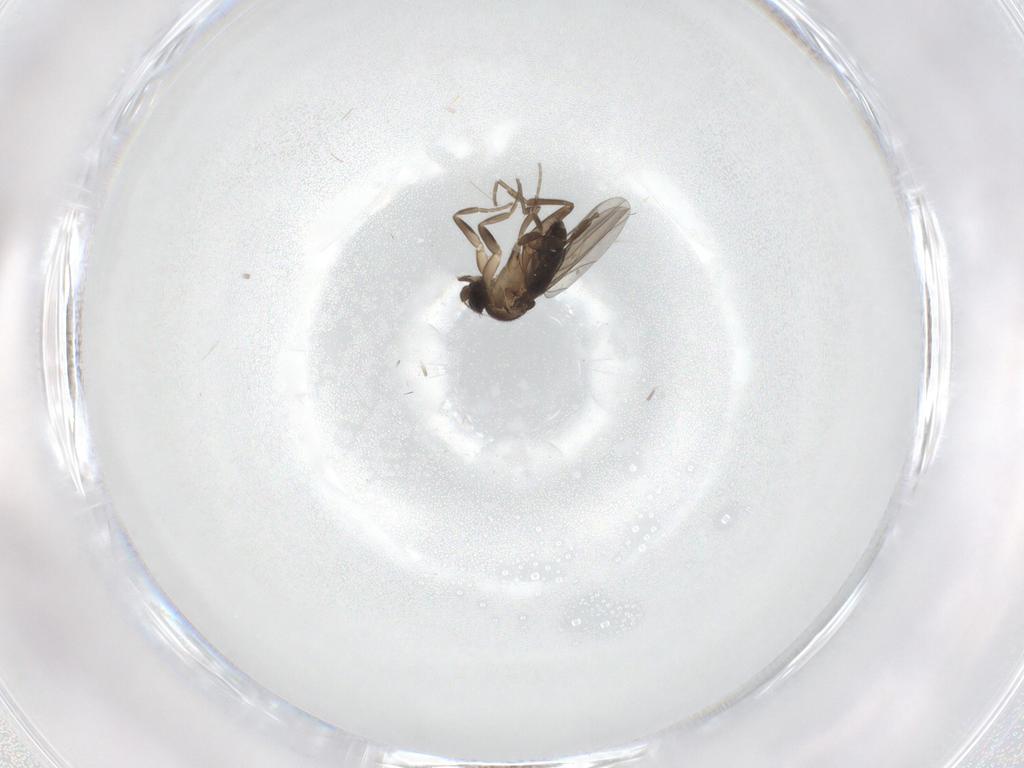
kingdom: Animalia
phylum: Arthropoda
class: Insecta
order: Diptera
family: Phoridae
